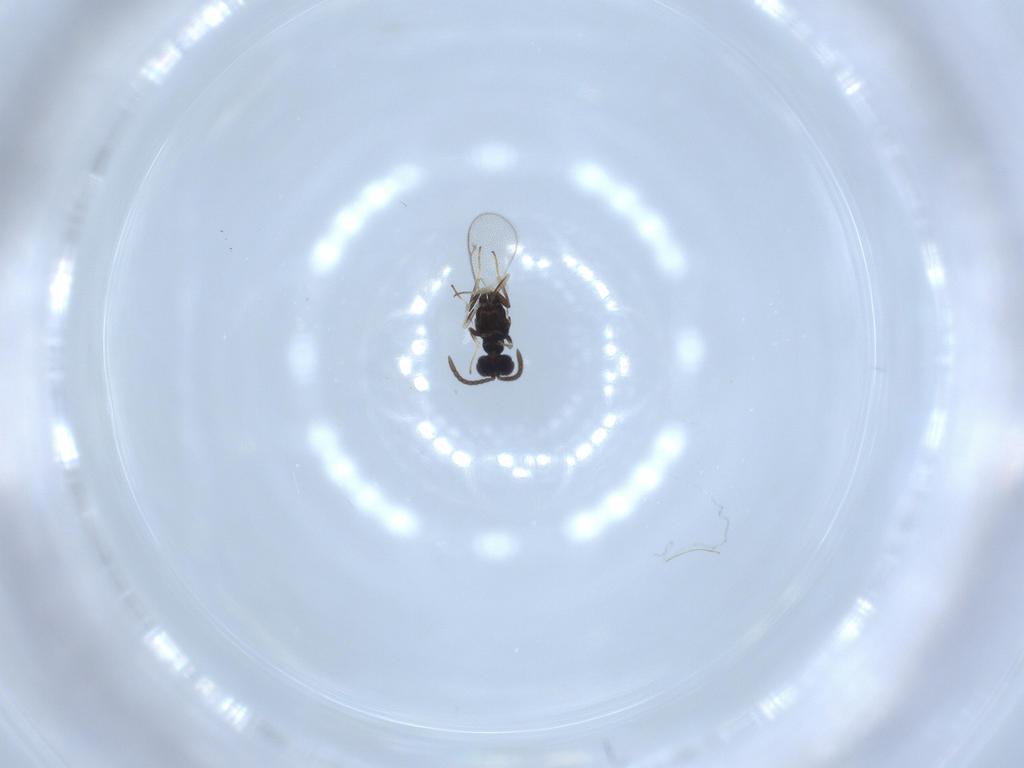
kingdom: Animalia
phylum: Arthropoda
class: Insecta
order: Hymenoptera
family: Eupelmidae
